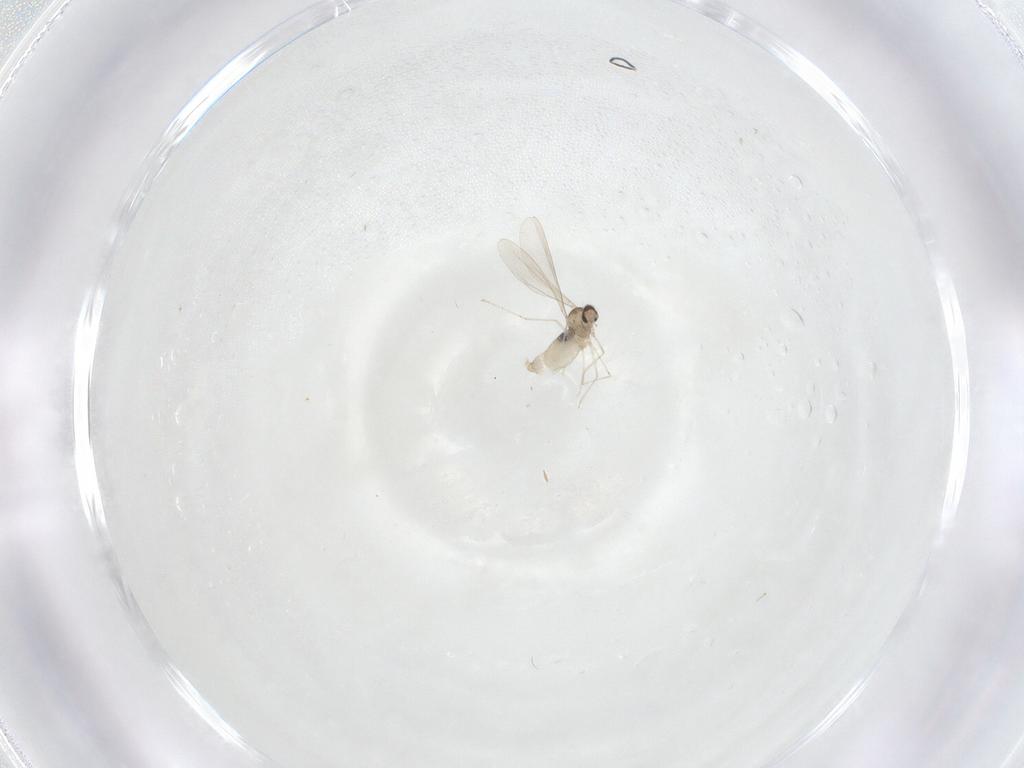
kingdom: Animalia
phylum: Arthropoda
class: Insecta
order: Diptera
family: Cecidomyiidae
